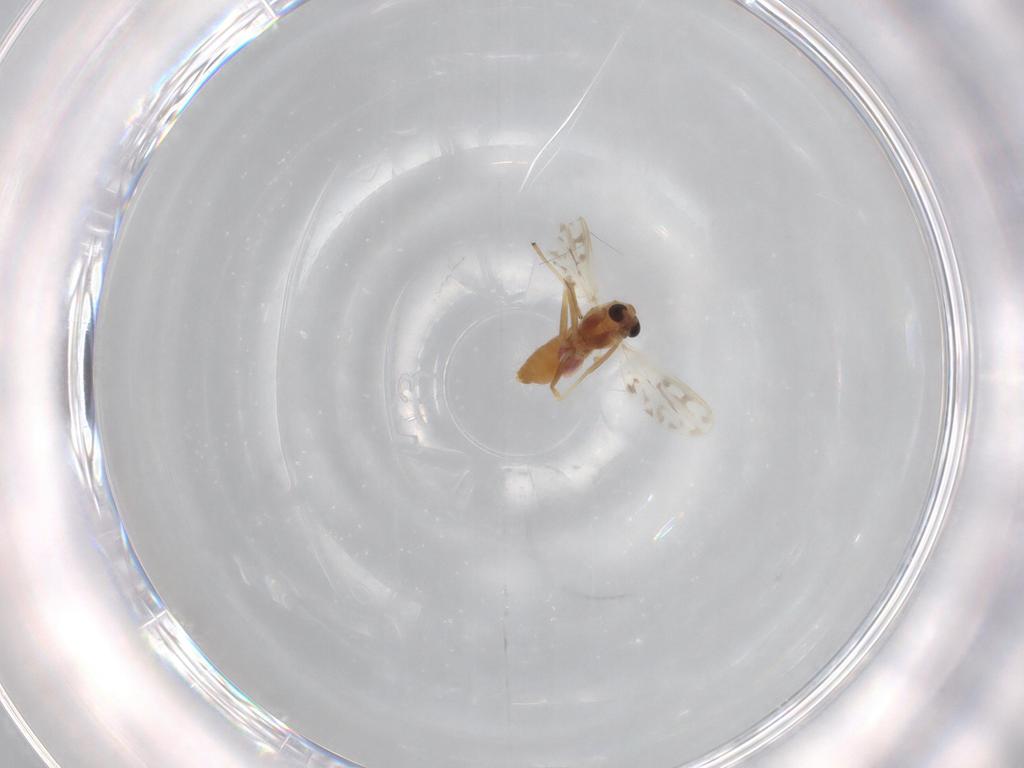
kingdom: Animalia
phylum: Arthropoda
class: Insecta
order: Diptera
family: Chironomidae
